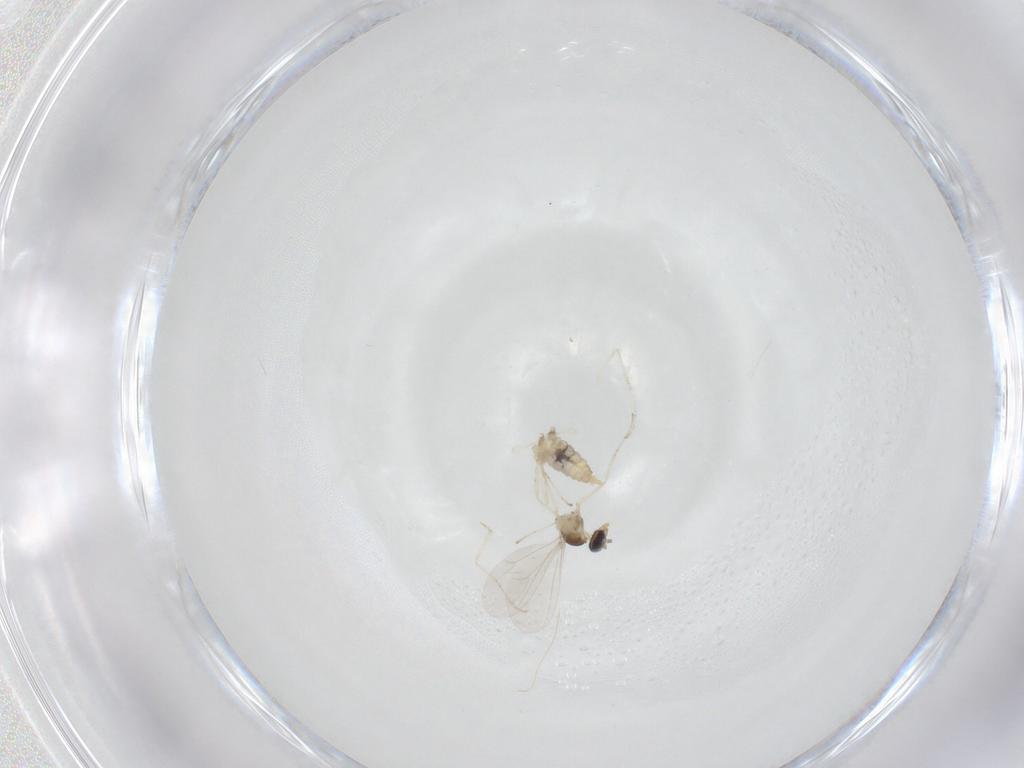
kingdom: Animalia
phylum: Arthropoda
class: Insecta
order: Diptera
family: Cecidomyiidae
